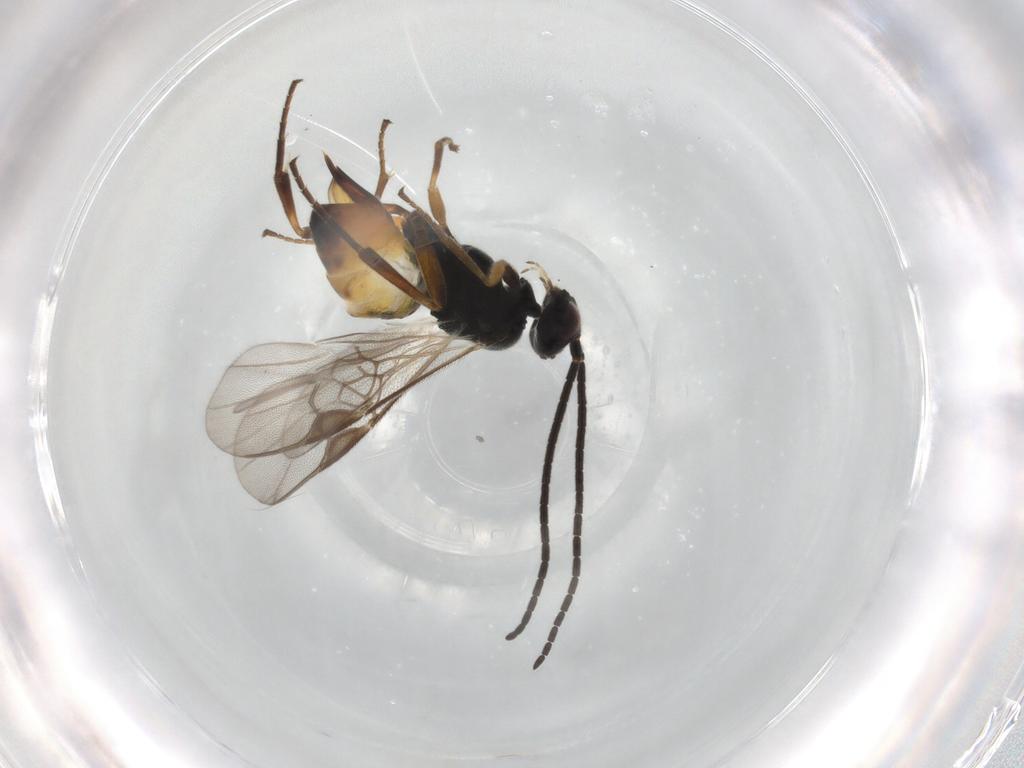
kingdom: Animalia
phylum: Arthropoda
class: Insecta
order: Hymenoptera
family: Braconidae
